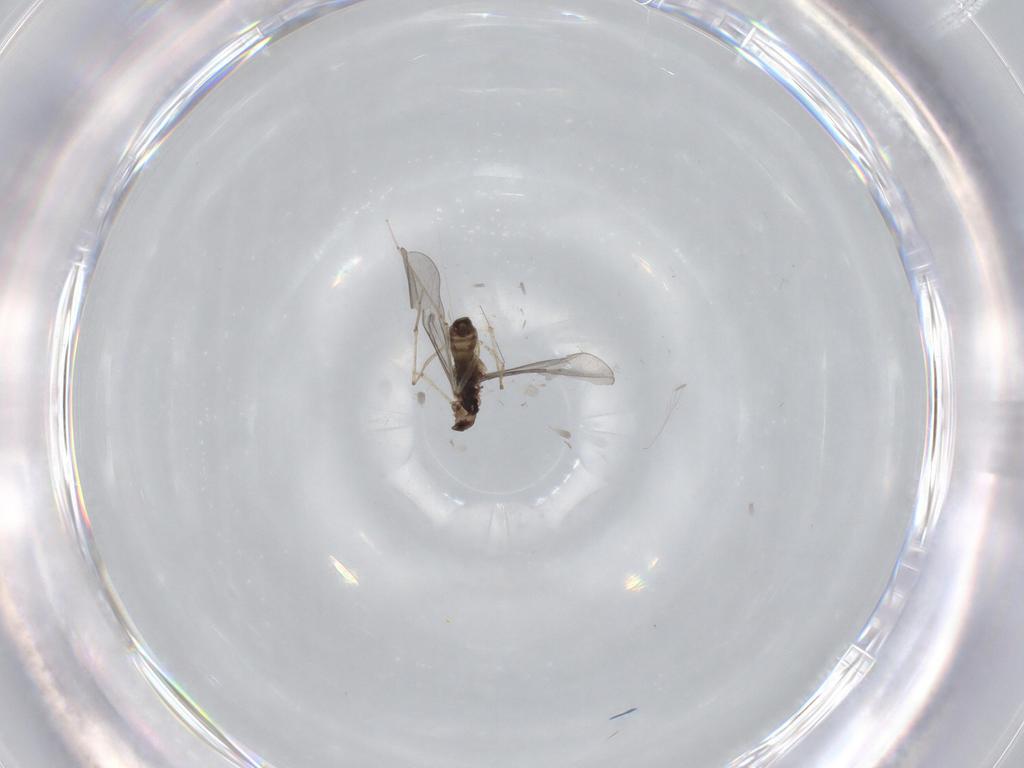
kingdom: Animalia
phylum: Arthropoda
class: Insecta
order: Diptera
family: Cecidomyiidae
